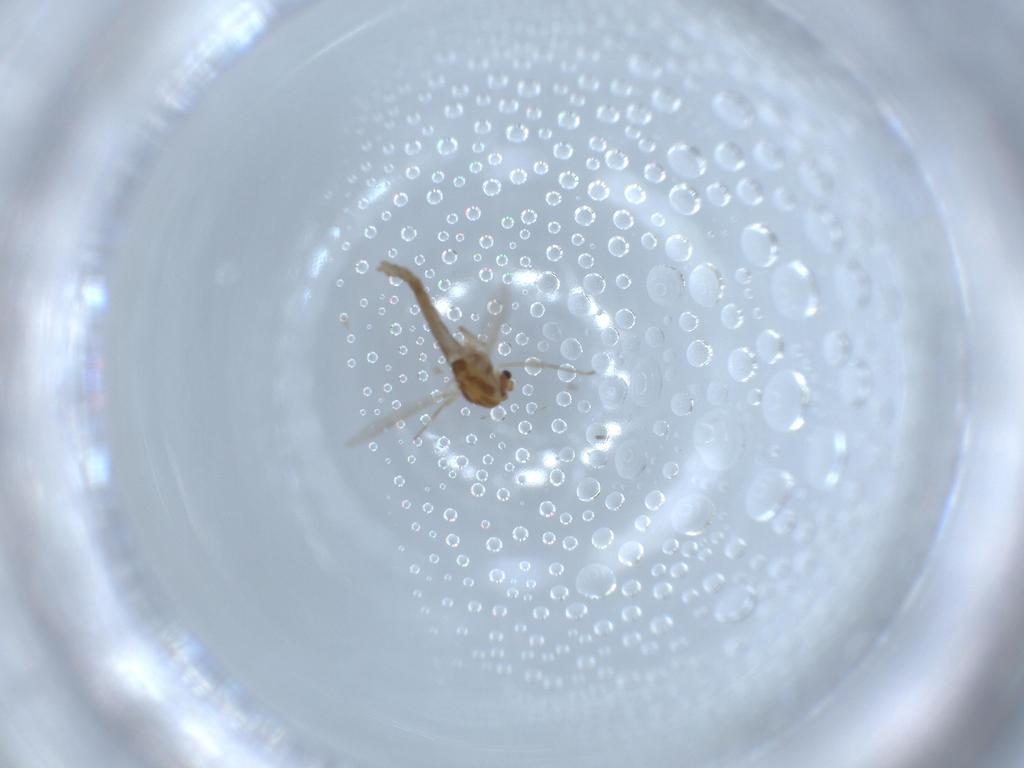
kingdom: Animalia
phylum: Arthropoda
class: Insecta
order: Diptera
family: Chironomidae
